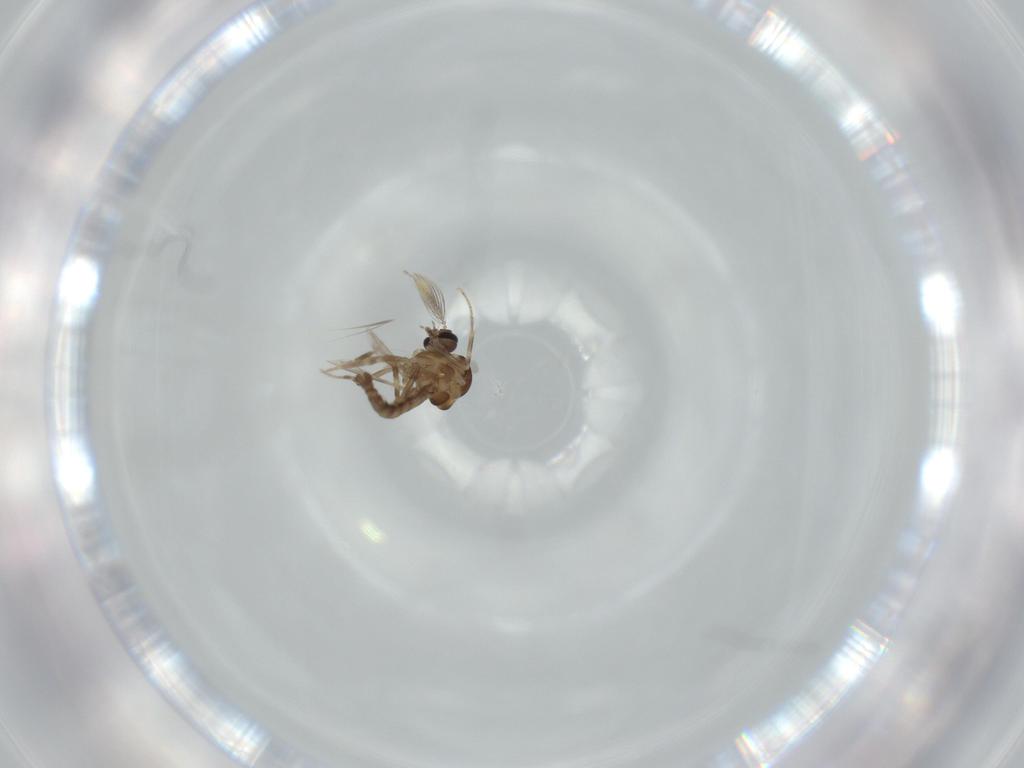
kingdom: Animalia
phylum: Arthropoda
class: Insecta
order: Diptera
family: Ceratopogonidae
